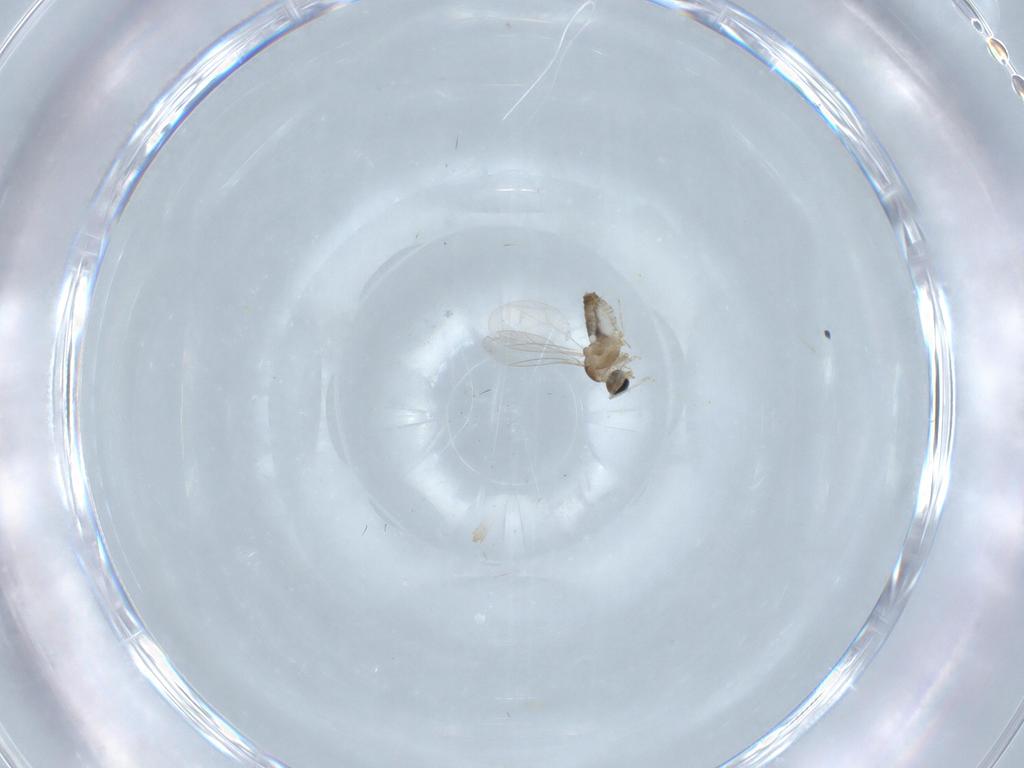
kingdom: Animalia
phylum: Arthropoda
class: Insecta
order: Diptera
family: Cecidomyiidae
